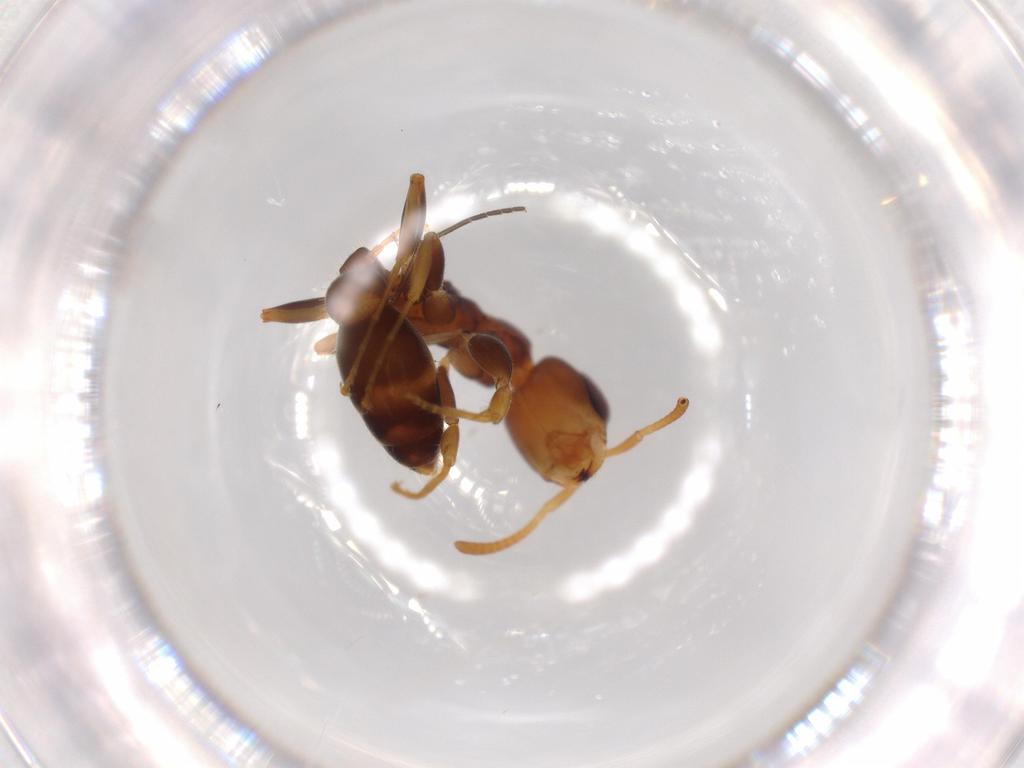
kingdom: Animalia
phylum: Arthropoda
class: Insecta
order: Hymenoptera
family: Formicidae
